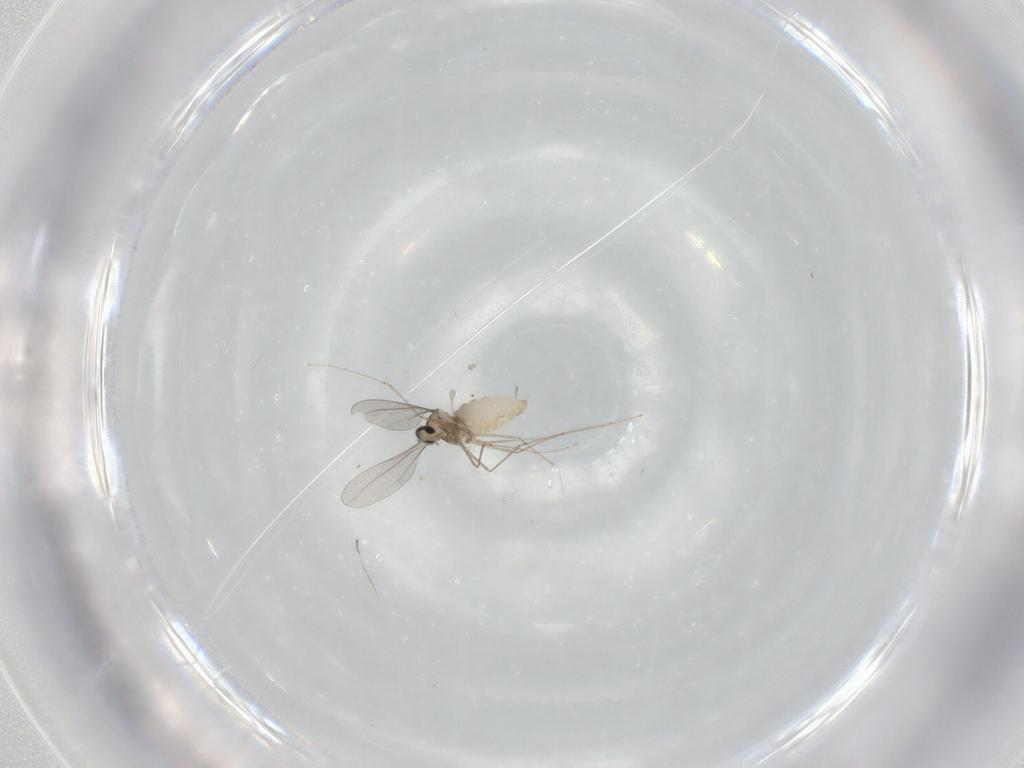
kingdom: Animalia
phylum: Arthropoda
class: Insecta
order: Diptera
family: Cecidomyiidae
